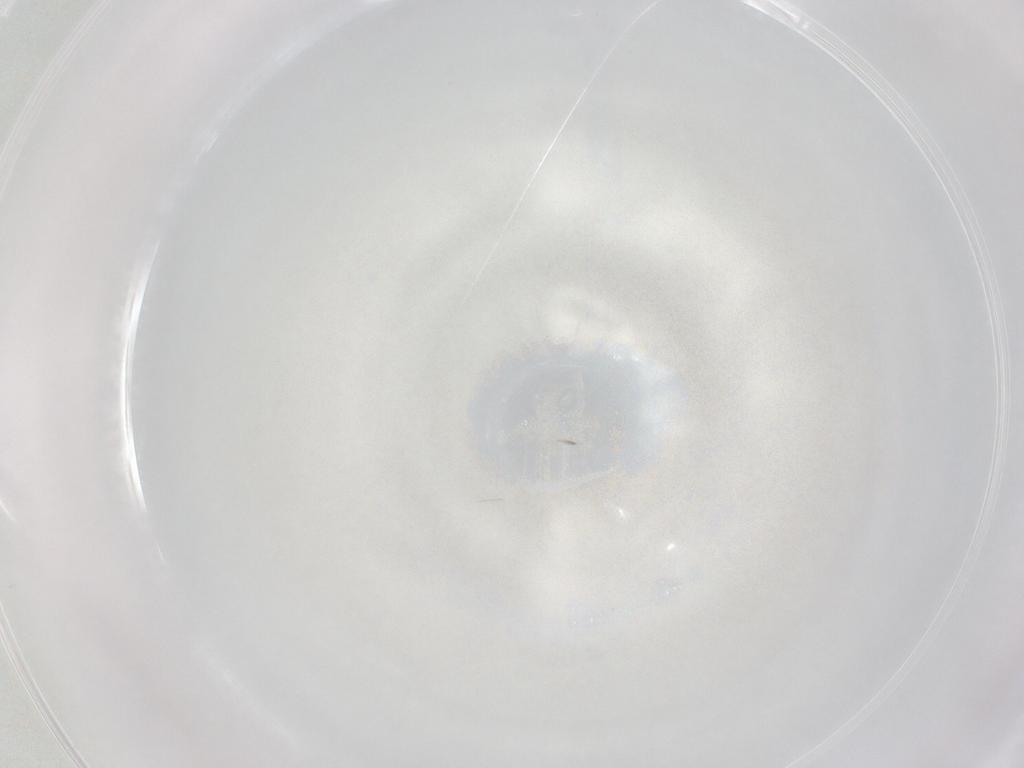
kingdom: Animalia
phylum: Arthropoda
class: Insecta
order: Diptera
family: Cecidomyiidae
